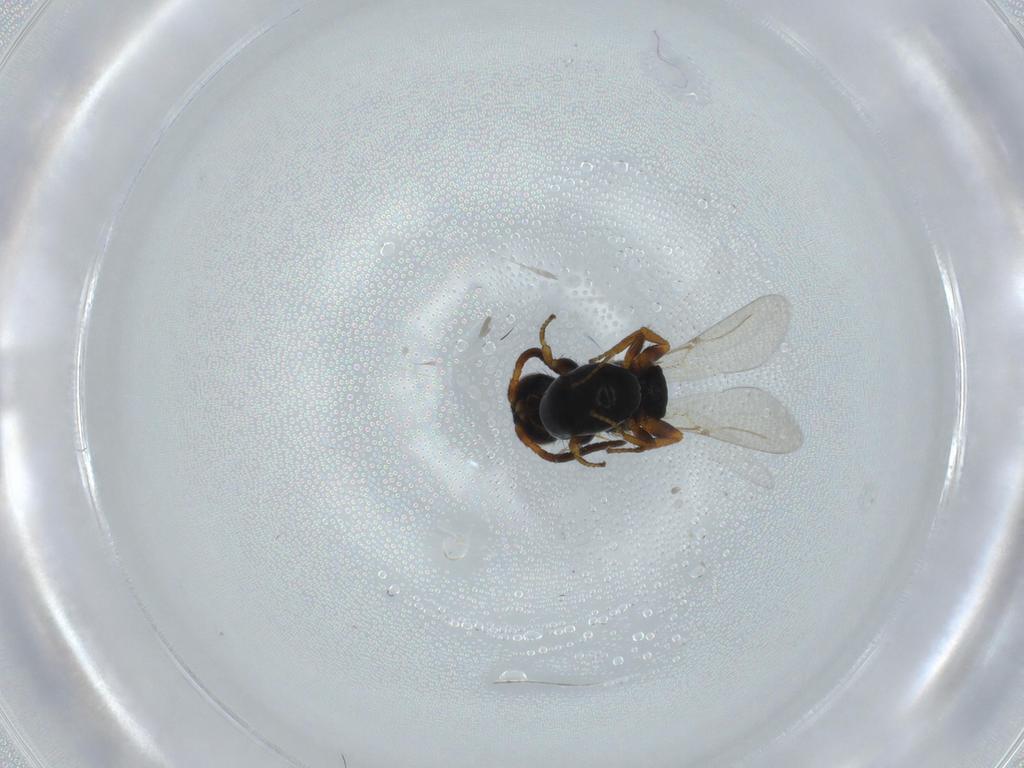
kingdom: Animalia
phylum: Arthropoda
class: Insecta
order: Hymenoptera
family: Bethylidae
